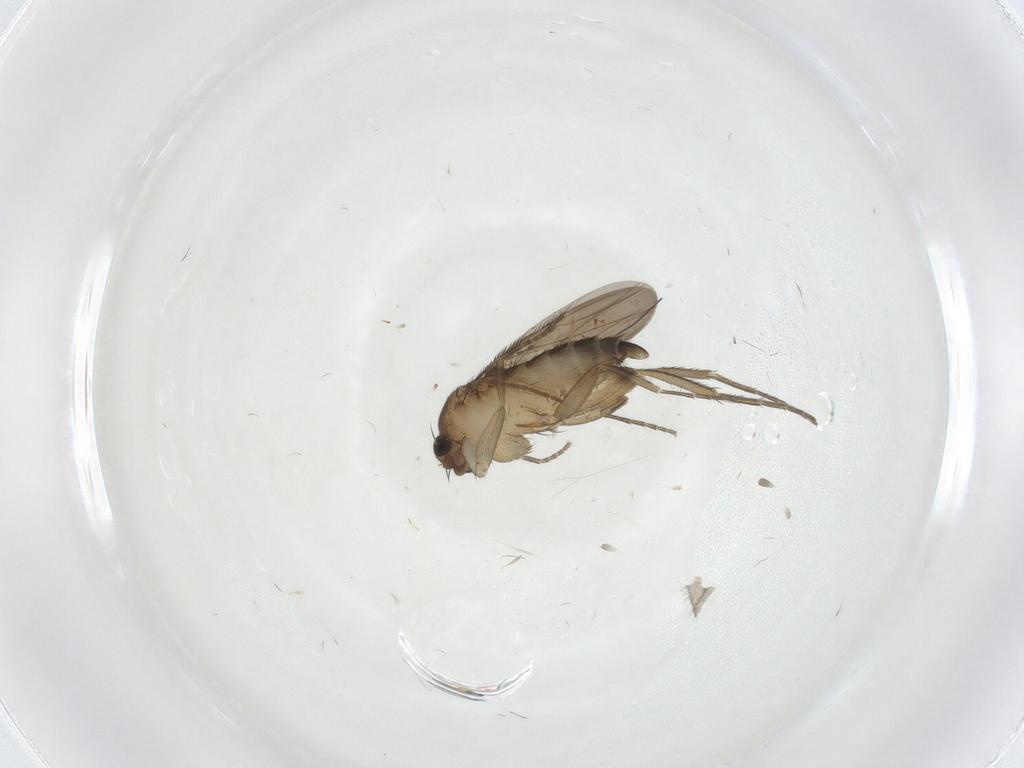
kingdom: Animalia
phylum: Arthropoda
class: Insecta
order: Diptera
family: Phoridae
